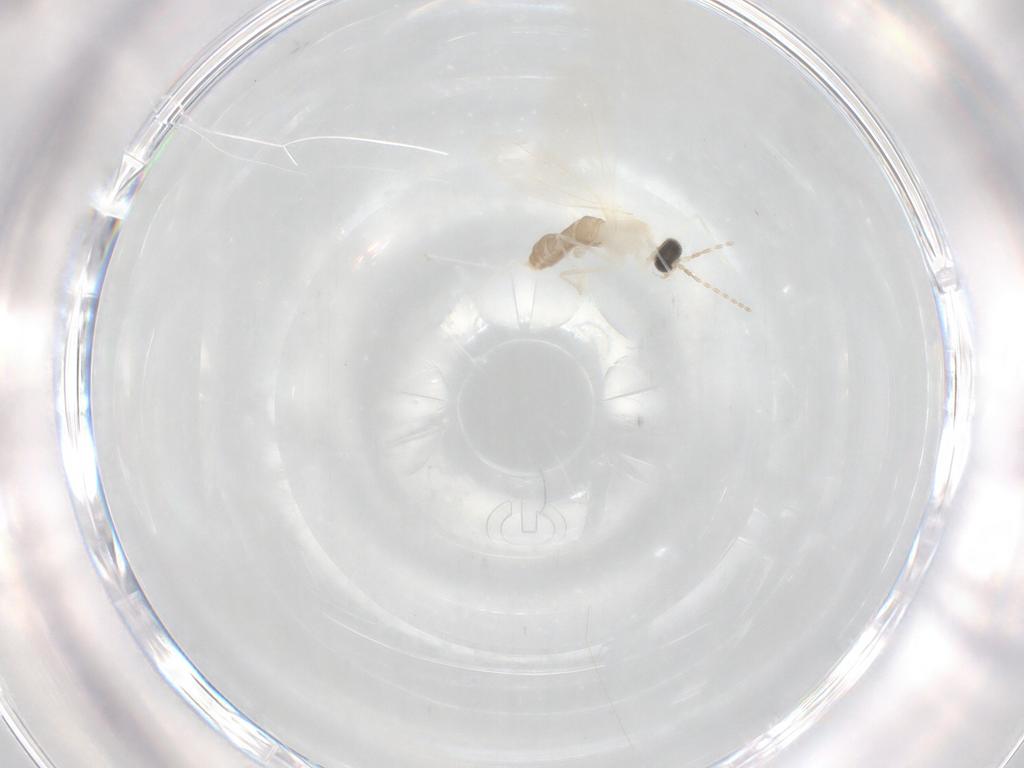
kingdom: Animalia
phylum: Arthropoda
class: Insecta
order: Diptera
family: Cecidomyiidae
